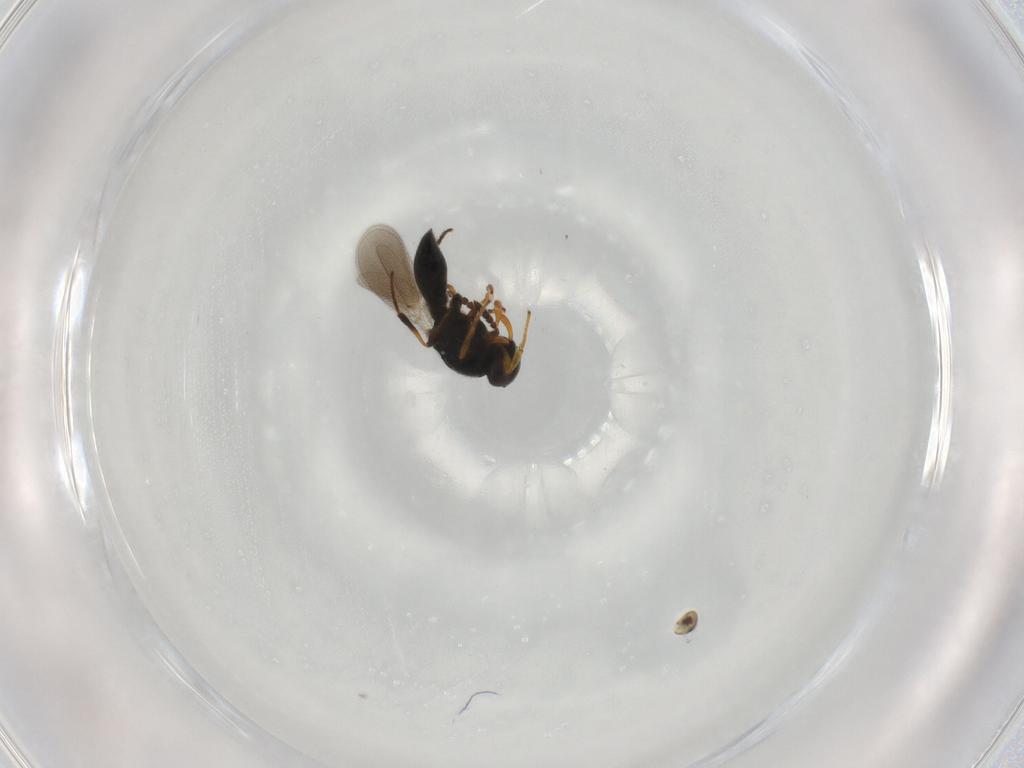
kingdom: Animalia
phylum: Arthropoda
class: Insecta
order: Hymenoptera
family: Platygastridae
